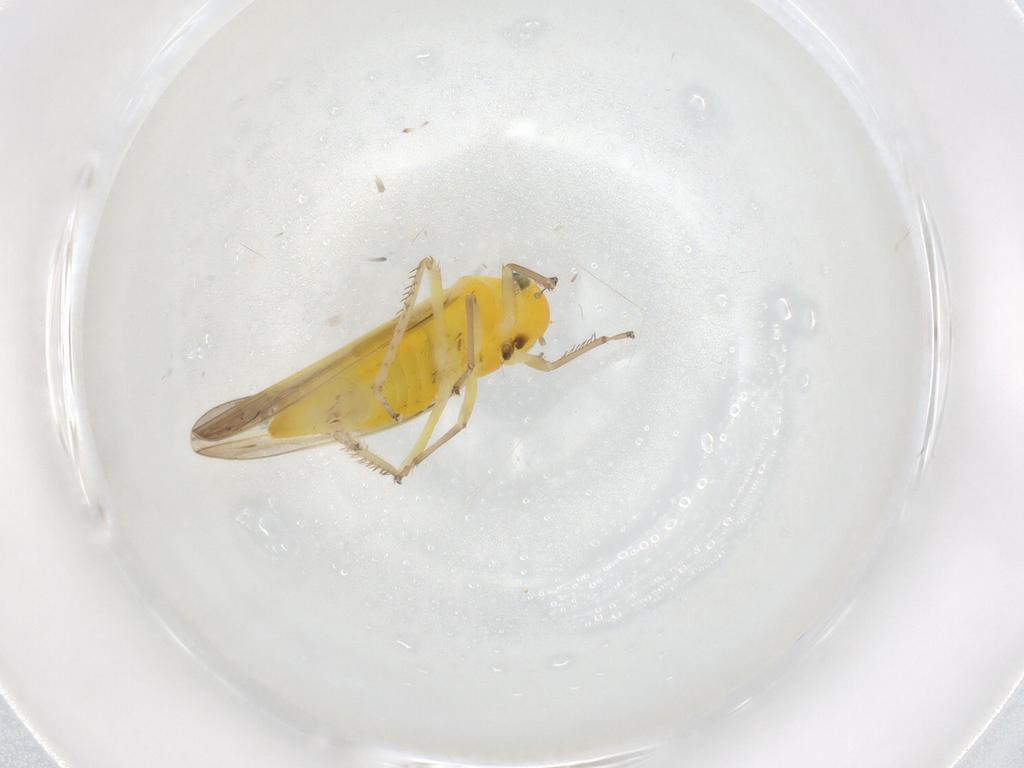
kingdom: Animalia
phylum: Arthropoda
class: Insecta
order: Hemiptera
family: Cicadellidae
